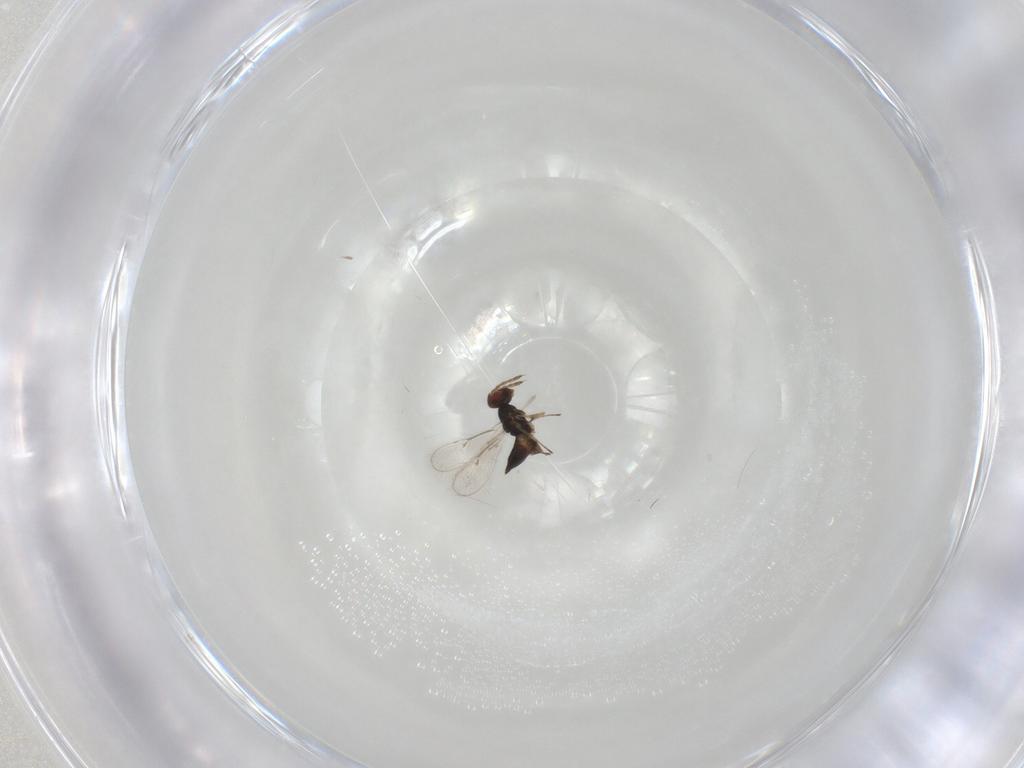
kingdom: Animalia
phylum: Arthropoda
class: Insecta
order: Hymenoptera
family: Eulophidae
